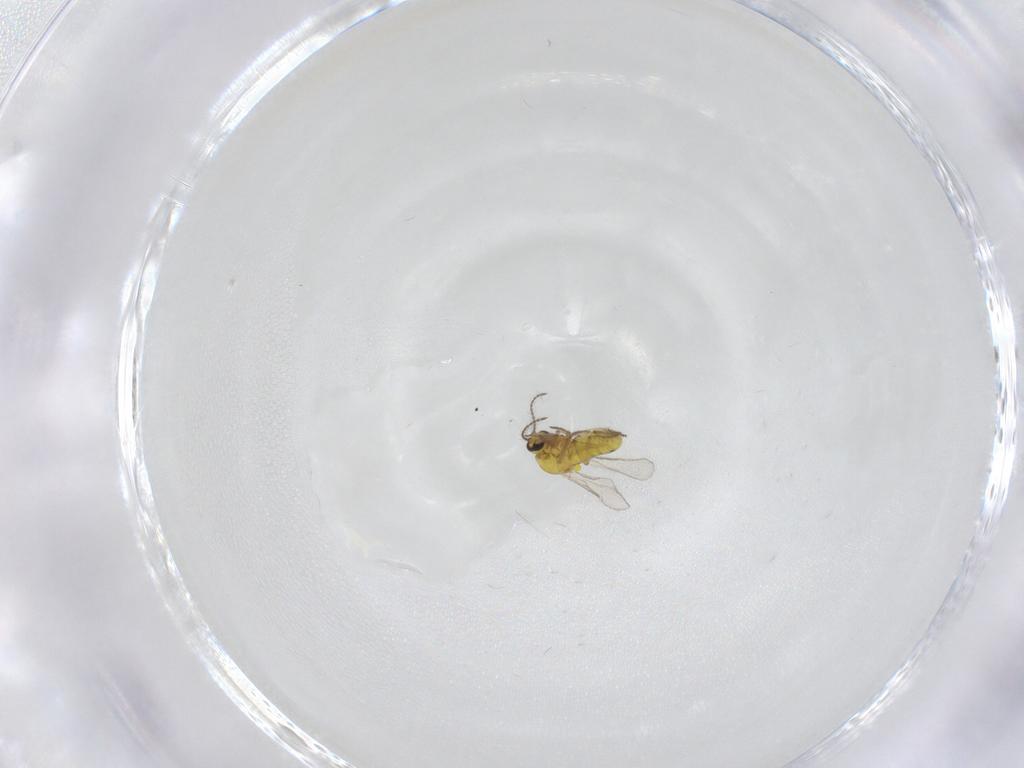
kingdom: Animalia
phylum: Arthropoda
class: Insecta
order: Diptera
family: Ceratopogonidae
